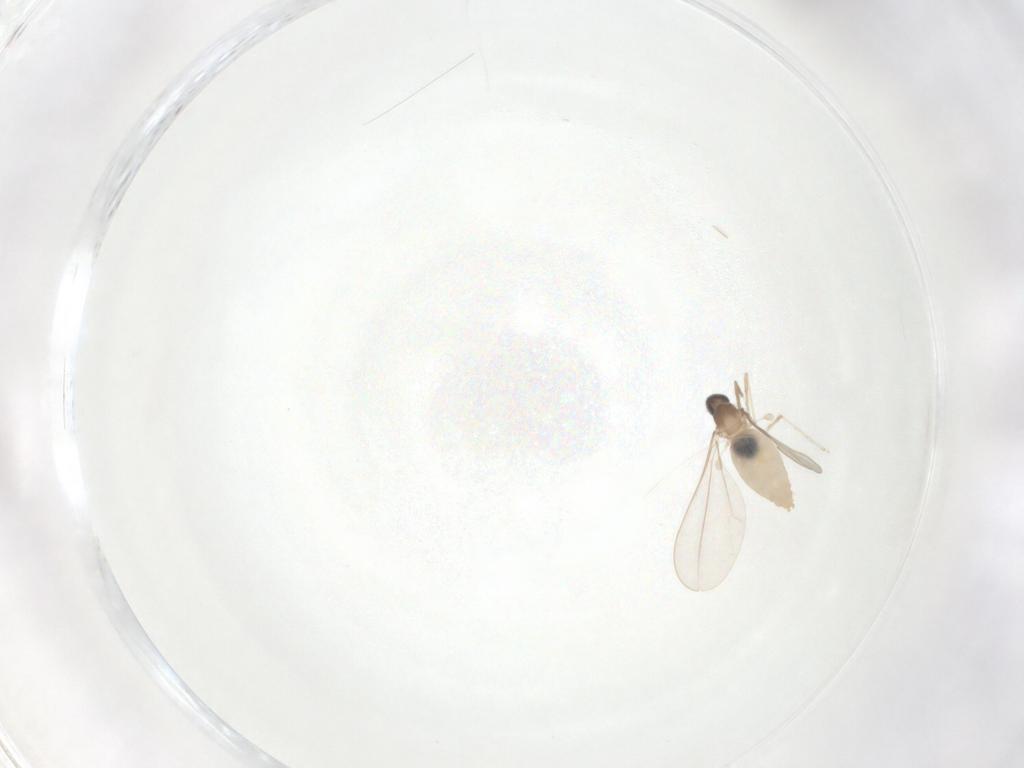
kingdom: Animalia
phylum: Arthropoda
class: Insecta
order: Diptera
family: Cecidomyiidae
